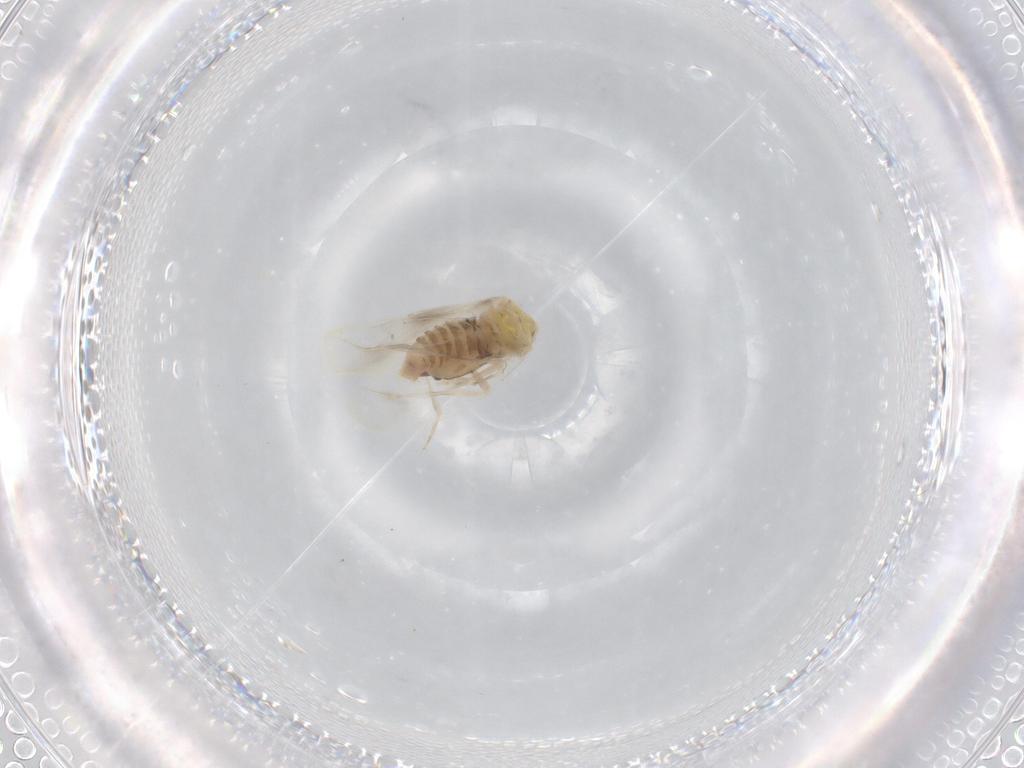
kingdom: Animalia
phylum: Arthropoda
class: Insecta
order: Hemiptera
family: Aleyrodidae
